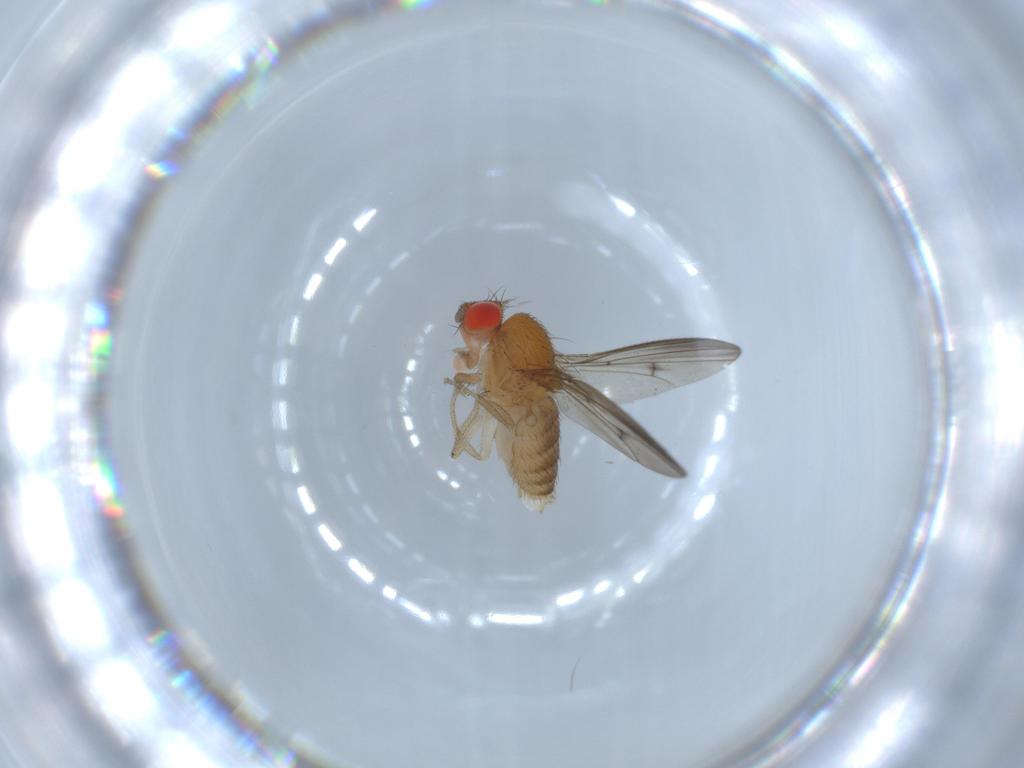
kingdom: Animalia
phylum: Arthropoda
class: Insecta
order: Diptera
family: Drosophilidae
